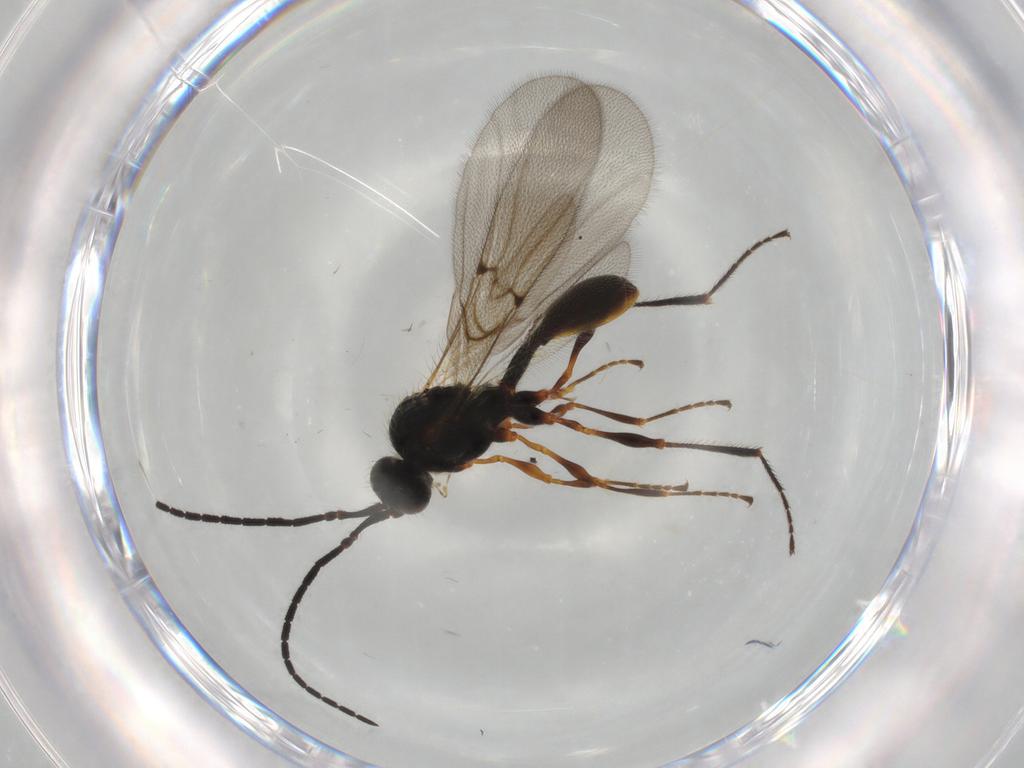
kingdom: Animalia
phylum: Arthropoda
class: Insecta
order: Hymenoptera
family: Diapriidae
